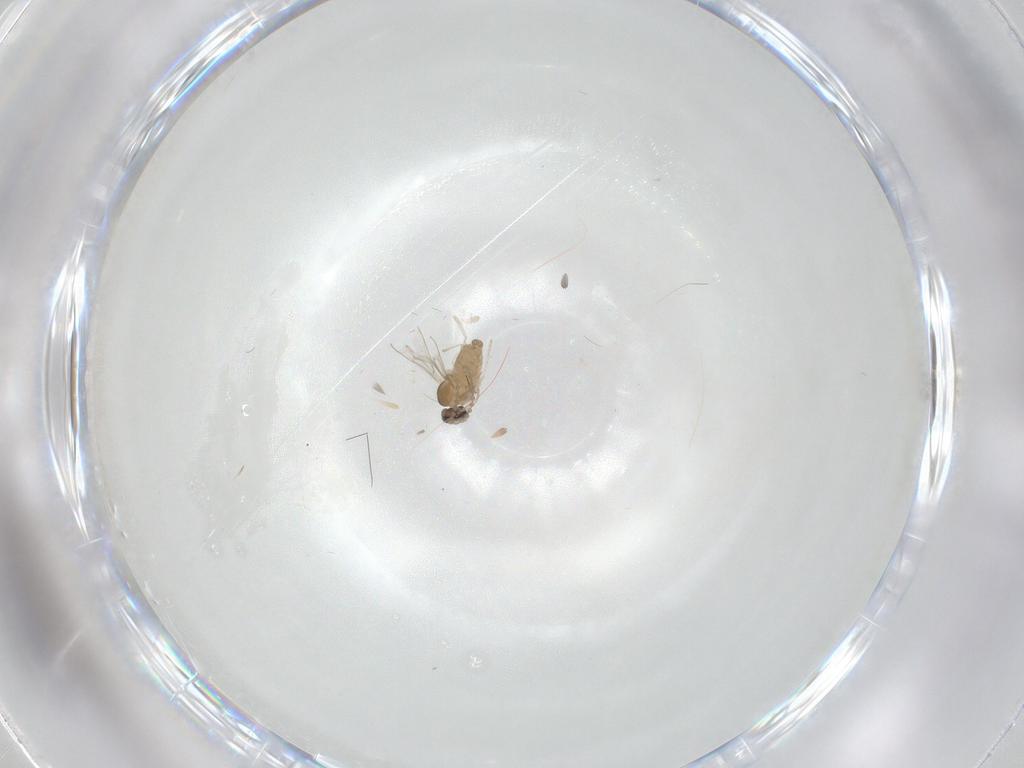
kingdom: Animalia
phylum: Arthropoda
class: Insecta
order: Diptera
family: Cecidomyiidae
